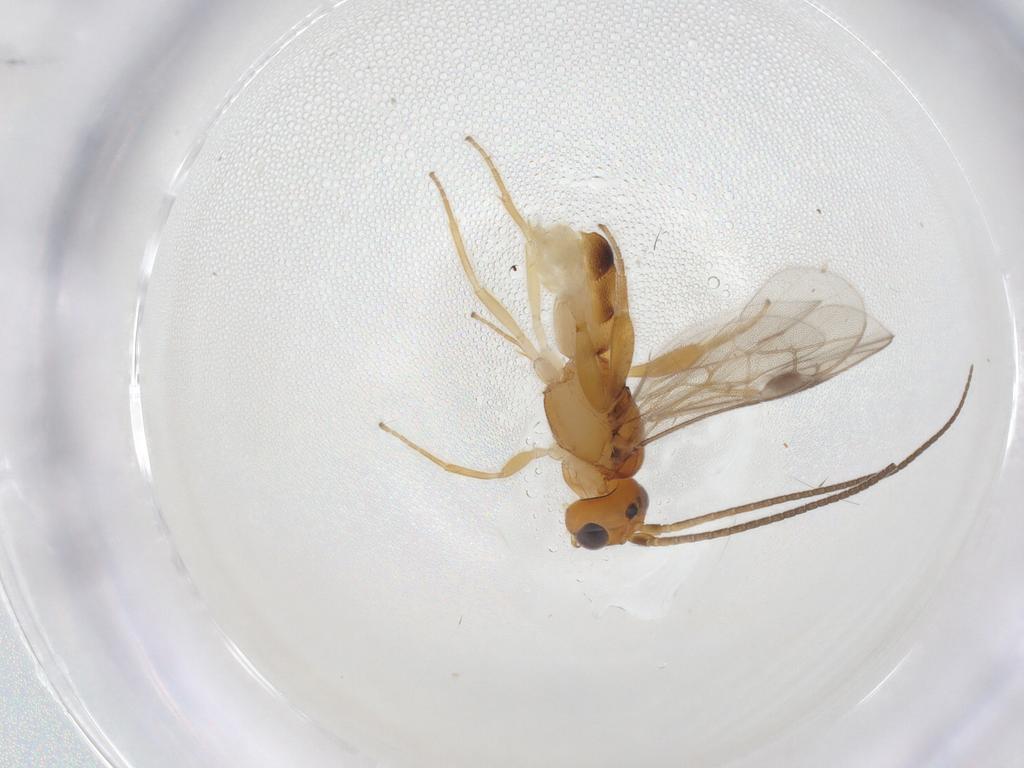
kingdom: Animalia
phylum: Arthropoda
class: Insecta
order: Hymenoptera
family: Braconidae
